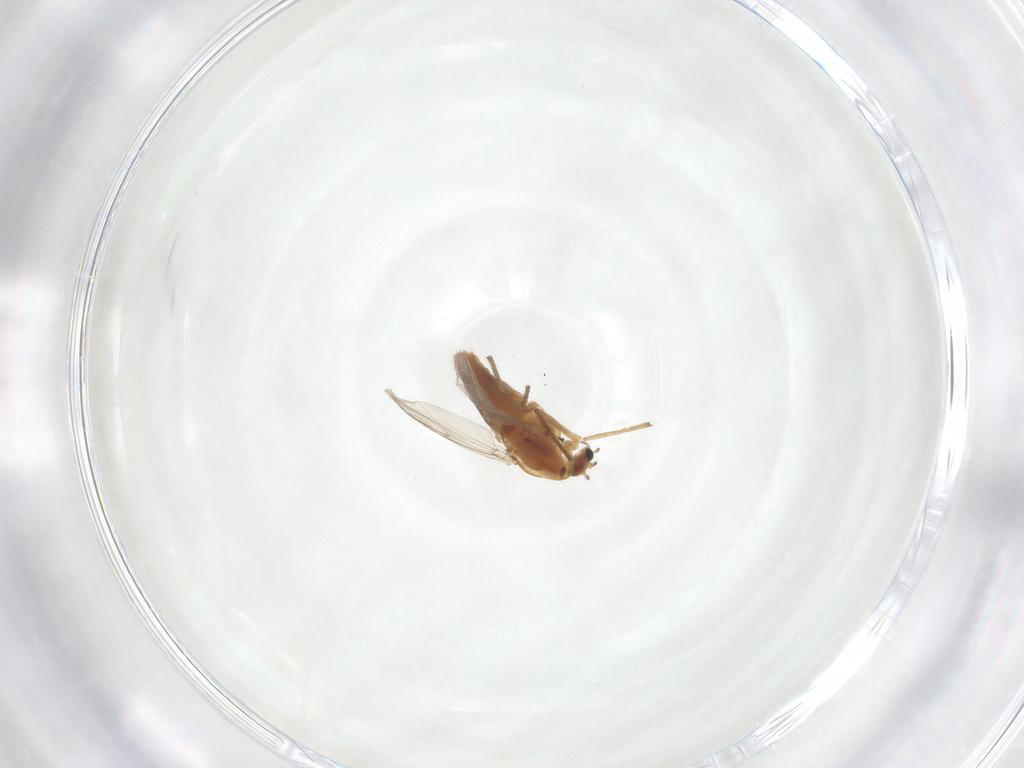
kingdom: Animalia
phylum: Arthropoda
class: Insecta
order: Diptera
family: Chironomidae
